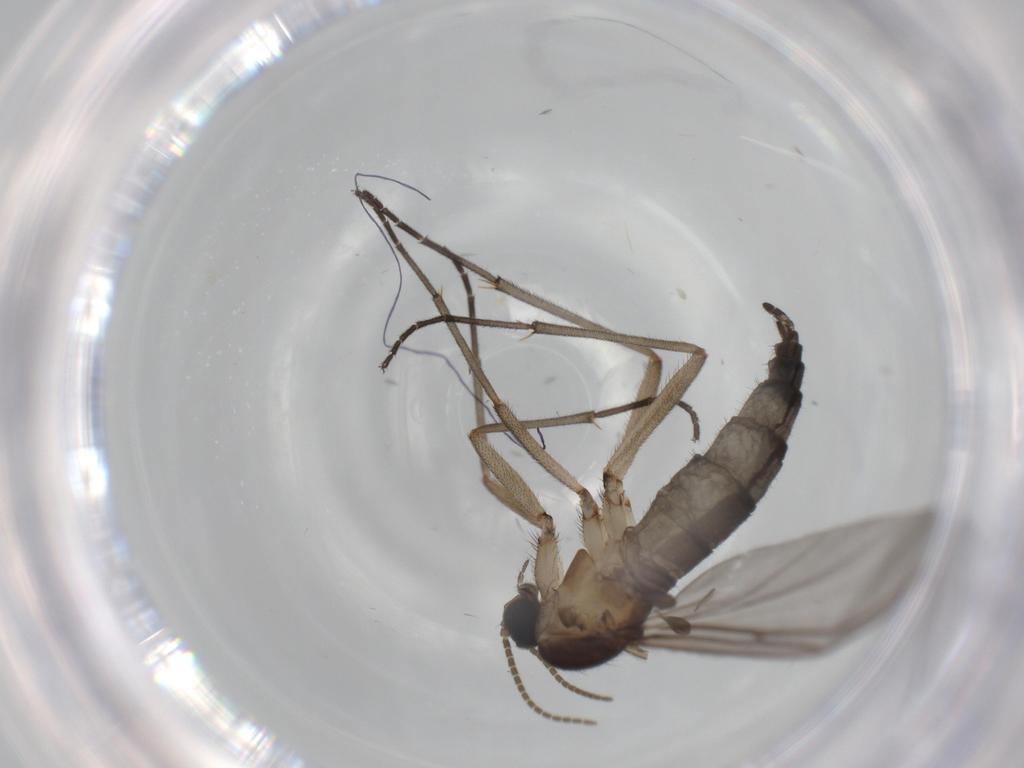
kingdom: Animalia
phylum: Arthropoda
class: Insecta
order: Diptera
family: Sciaridae
